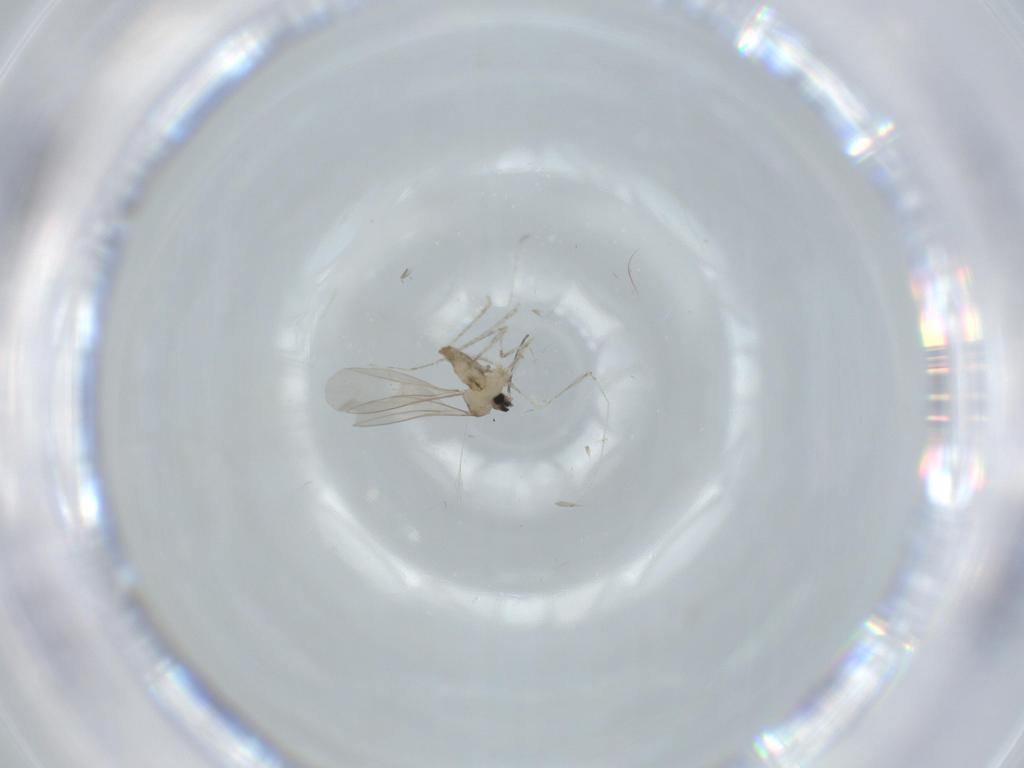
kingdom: Animalia
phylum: Arthropoda
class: Insecta
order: Diptera
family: Cecidomyiidae
